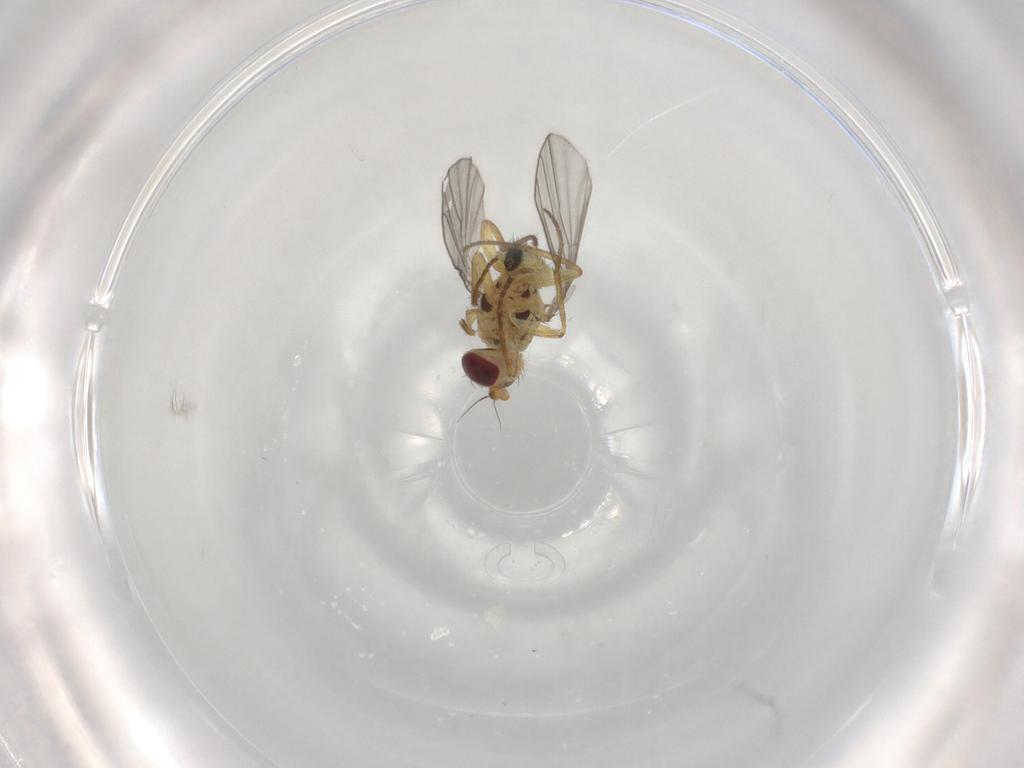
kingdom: Animalia
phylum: Arthropoda
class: Insecta
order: Diptera
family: Agromyzidae
